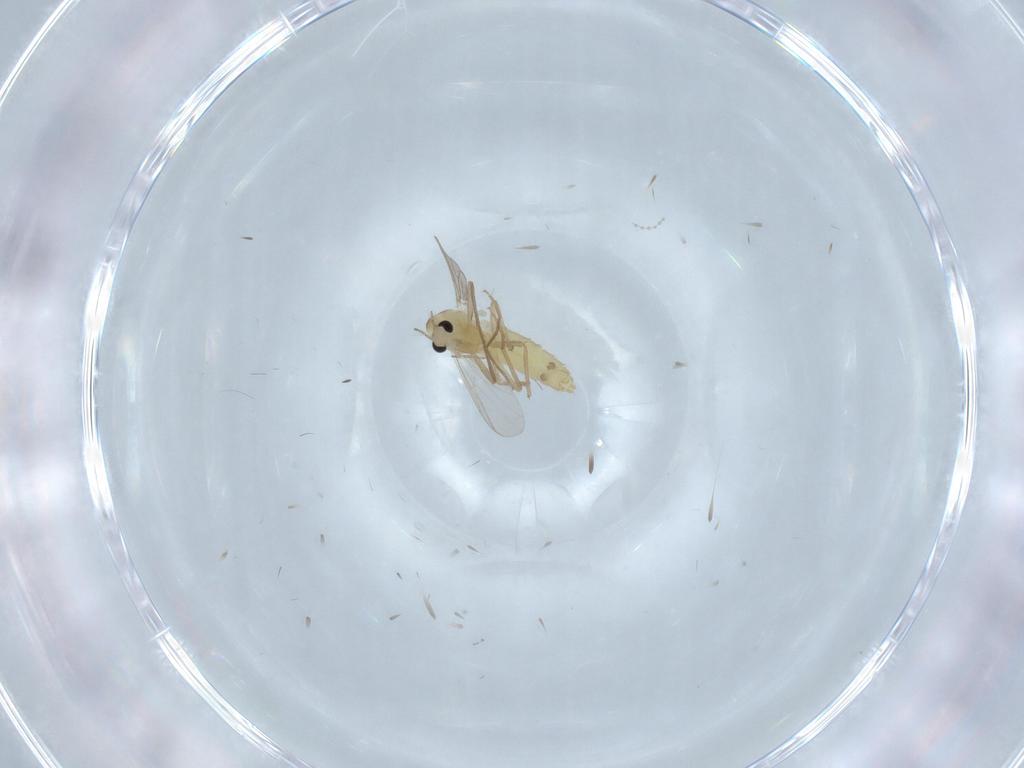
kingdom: Animalia
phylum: Arthropoda
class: Insecta
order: Diptera
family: Chironomidae
